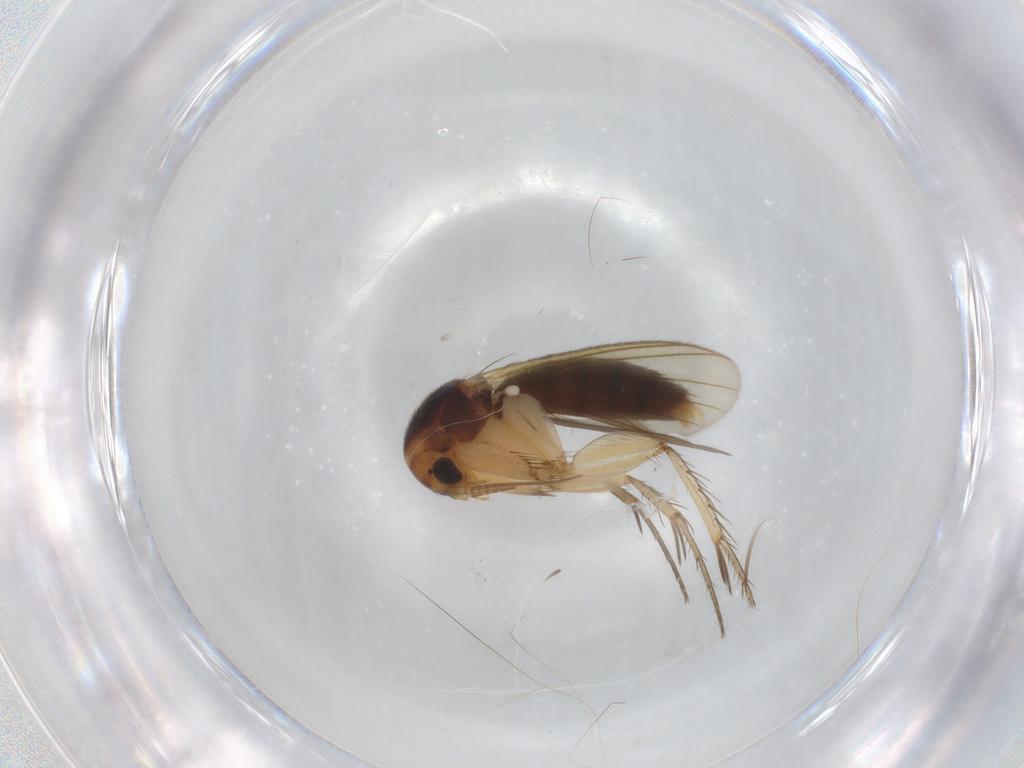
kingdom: Animalia
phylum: Arthropoda
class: Insecta
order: Diptera
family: Mycetophilidae
